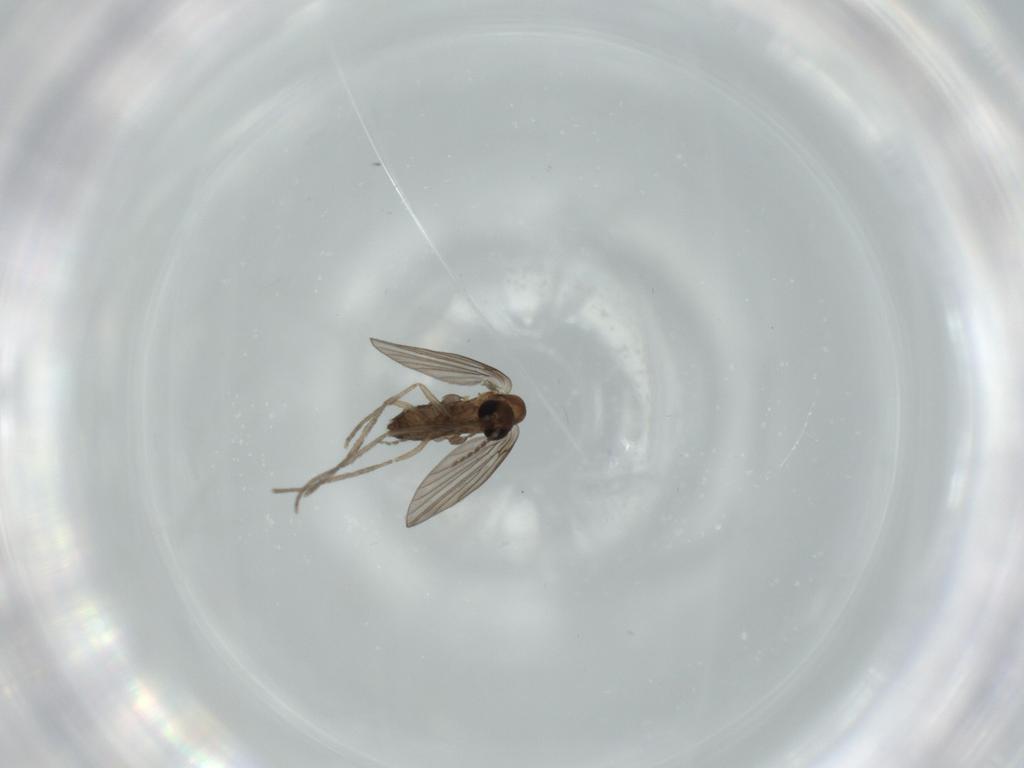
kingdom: Animalia
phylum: Arthropoda
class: Insecta
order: Diptera
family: Psychodidae
